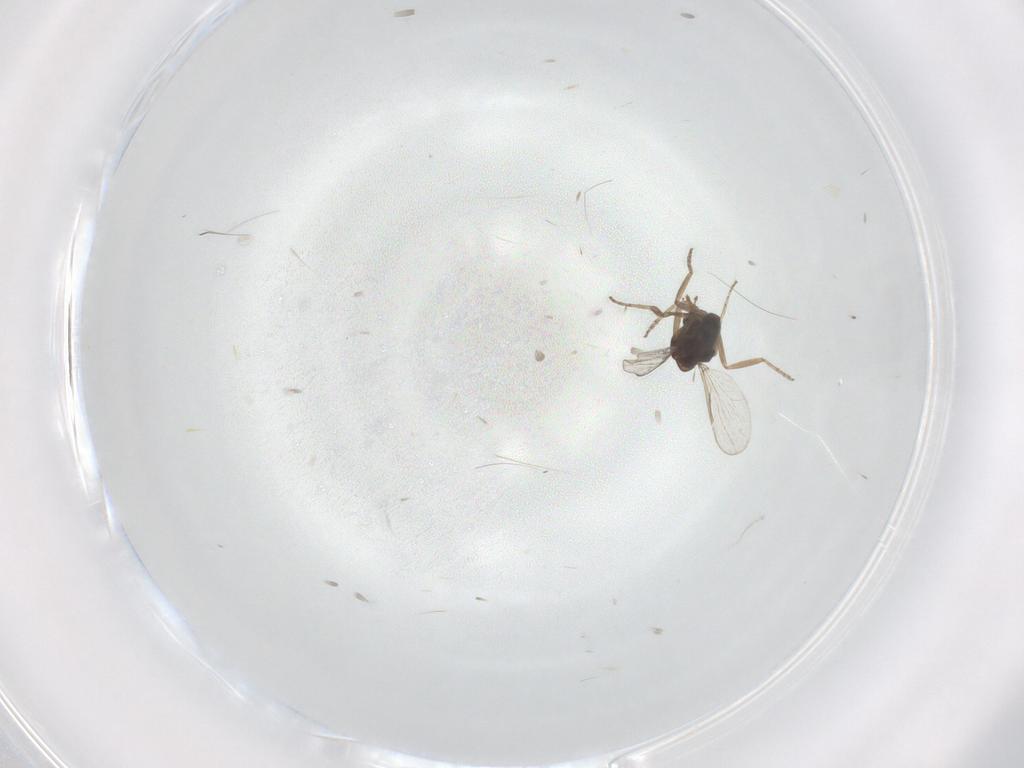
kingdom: Animalia
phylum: Arthropoda
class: Insecta
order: Diptera
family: Ceratopogonidae
